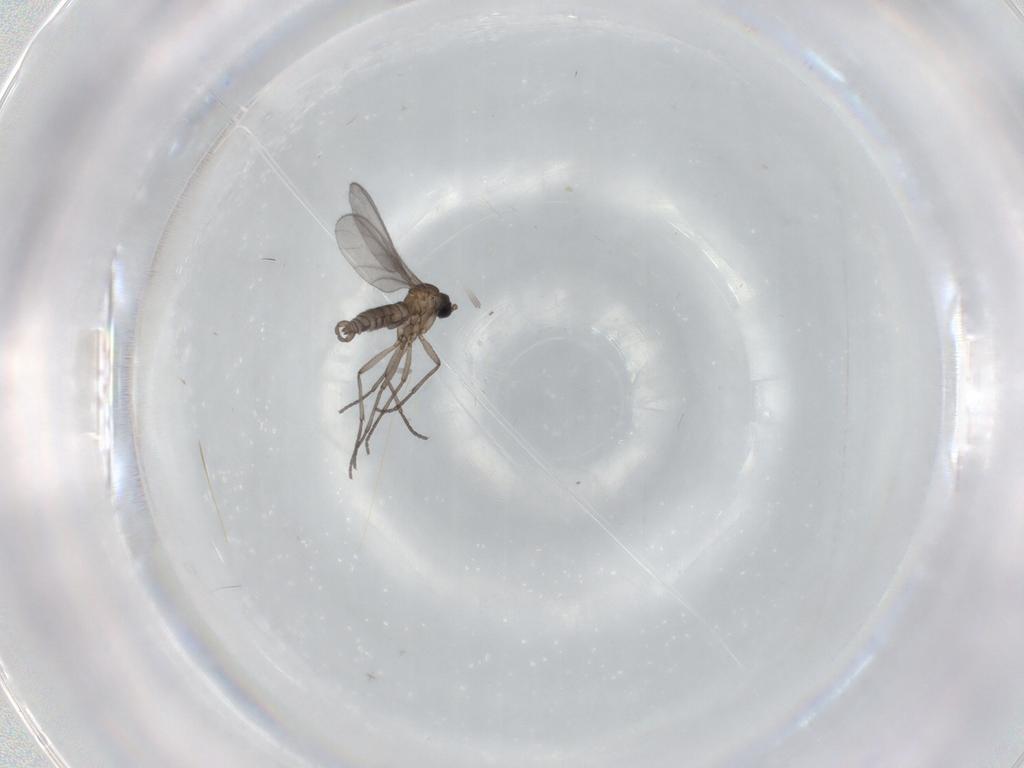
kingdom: Animalia
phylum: Arthropoda
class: Insecta
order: Diptera
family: Sciaridae
